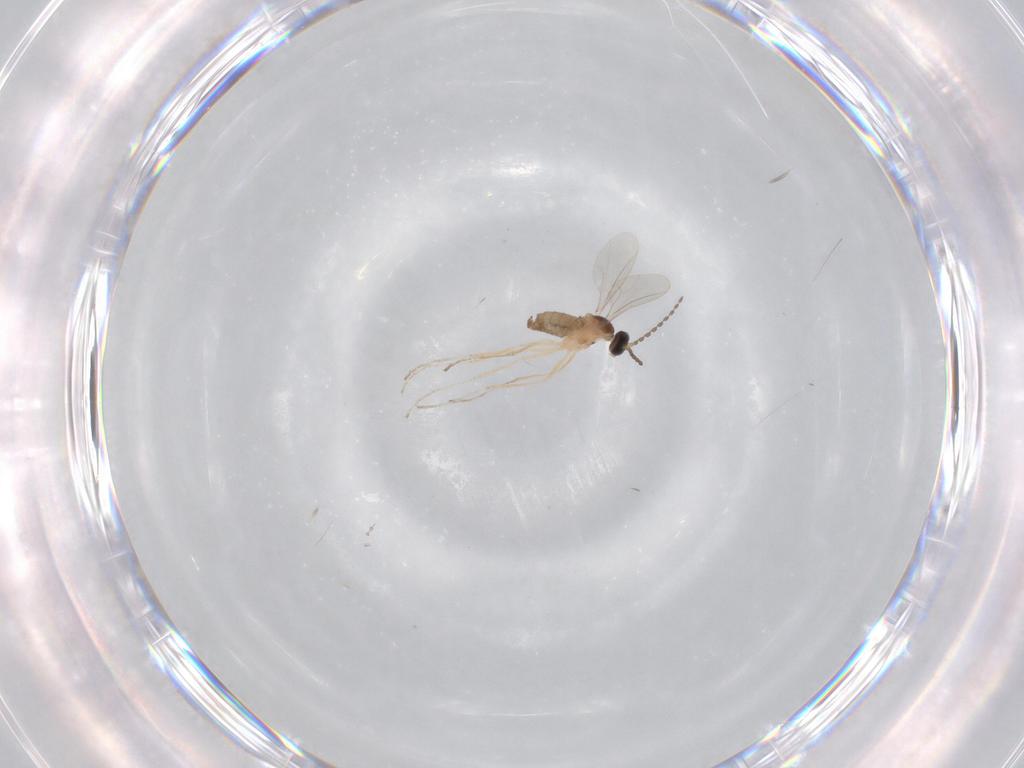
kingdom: Animalia
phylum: Arthropoda
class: Insecta
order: Diptera
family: Cecidomyiidae
